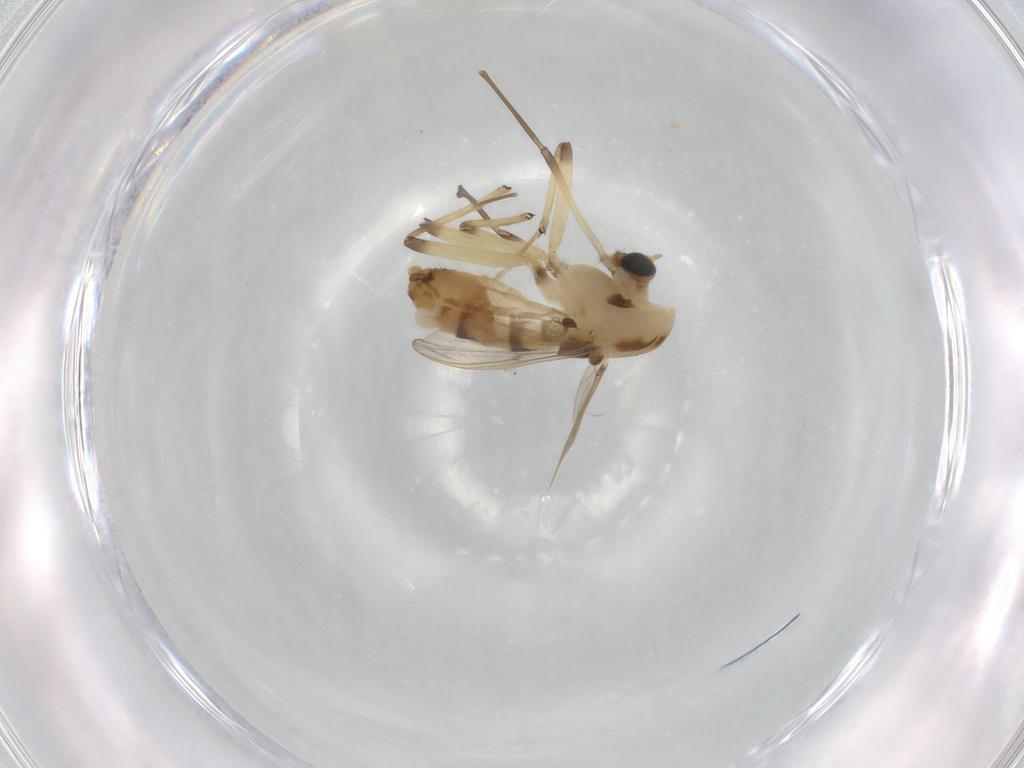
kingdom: Animalia
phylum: Arthropoda
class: Insecta
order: Diptera
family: Chironomidae
